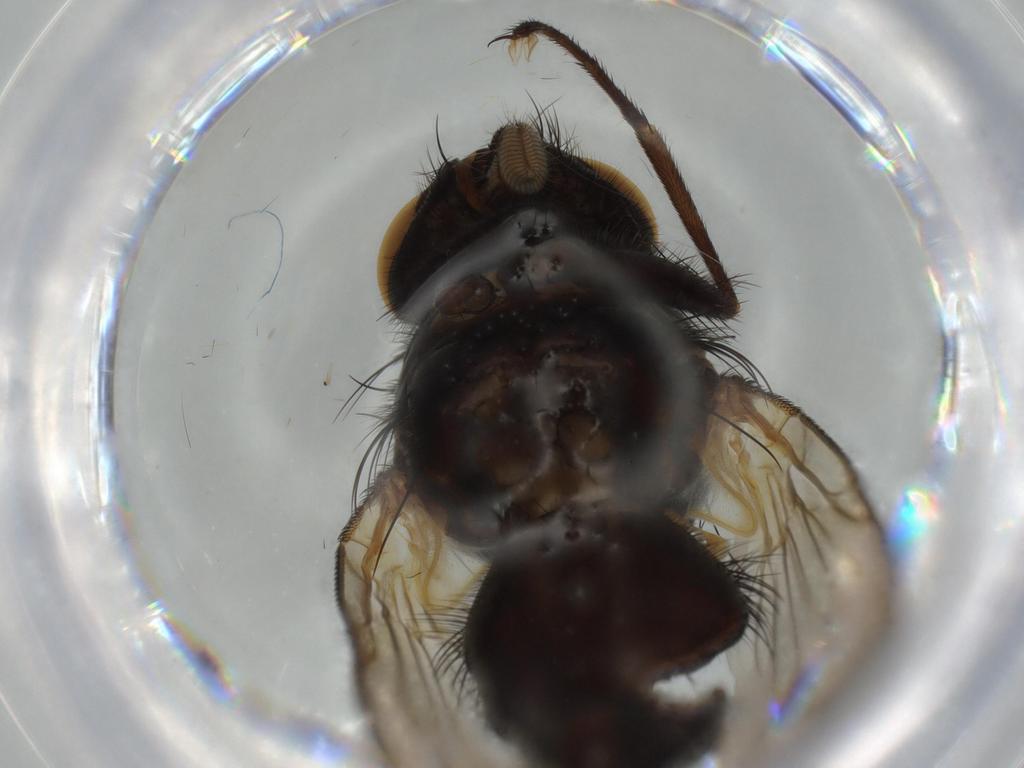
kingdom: Animalia
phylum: Arthropoda
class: Insecta
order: Diptera
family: Muscidae
